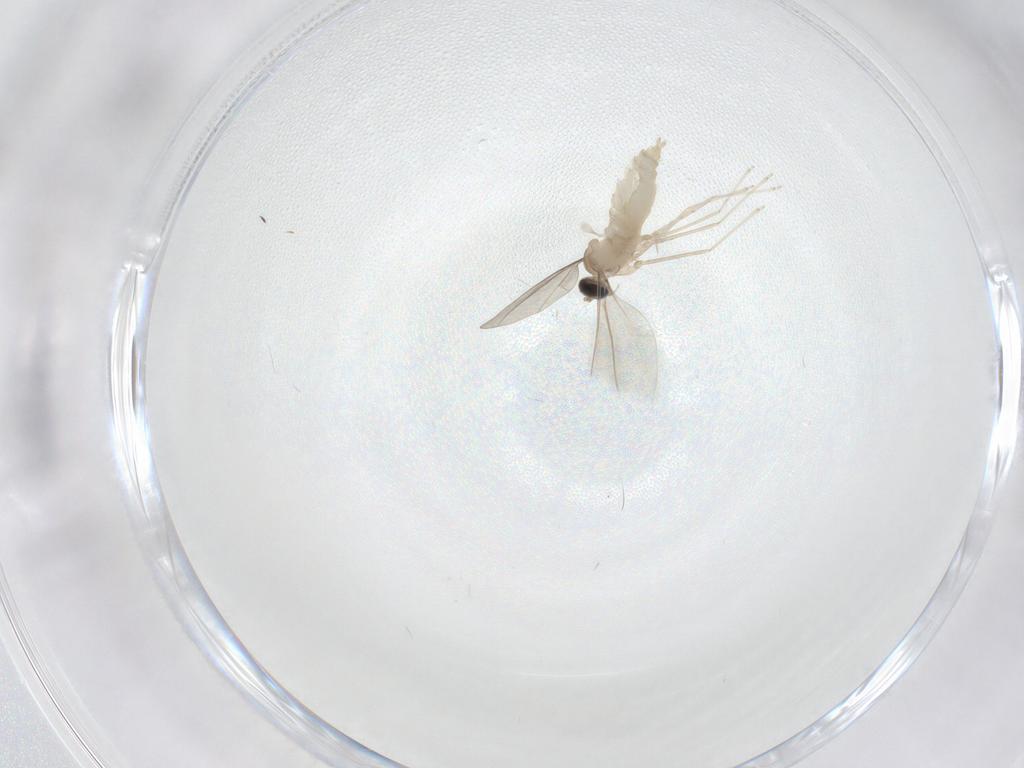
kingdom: Animalia
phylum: Arthropoda
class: Insecta
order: Diptera
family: Cecidomyiidae
